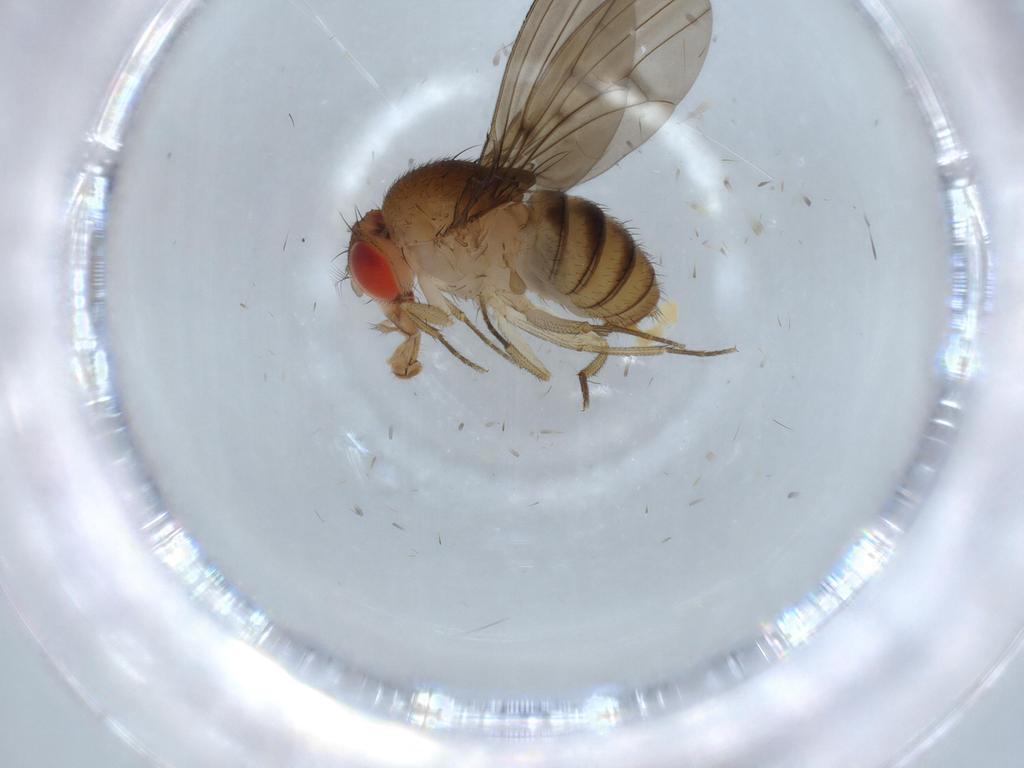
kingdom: Animalia
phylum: Arthropoda
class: Insecta
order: Diptera
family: Drosophilidae
